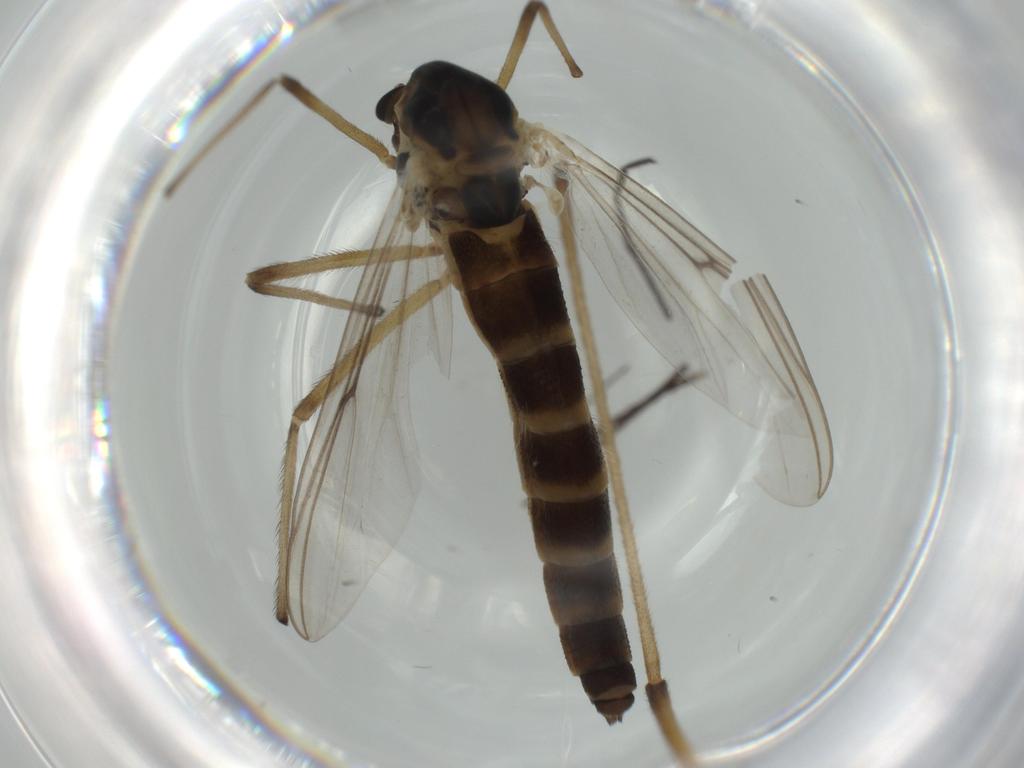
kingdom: Animalia
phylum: Arthropoda
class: Insecta
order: Diptera
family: Chironomidae
